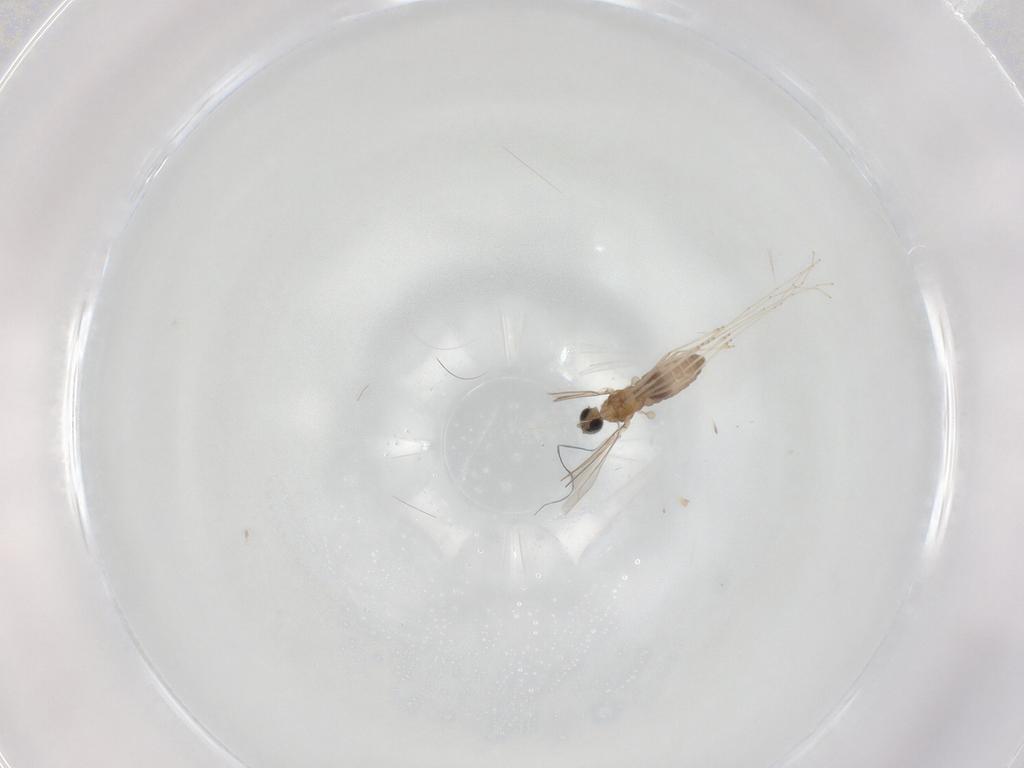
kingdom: Animalia
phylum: Arthropoda
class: Insecta
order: Diptera
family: Cecidomyiidae
